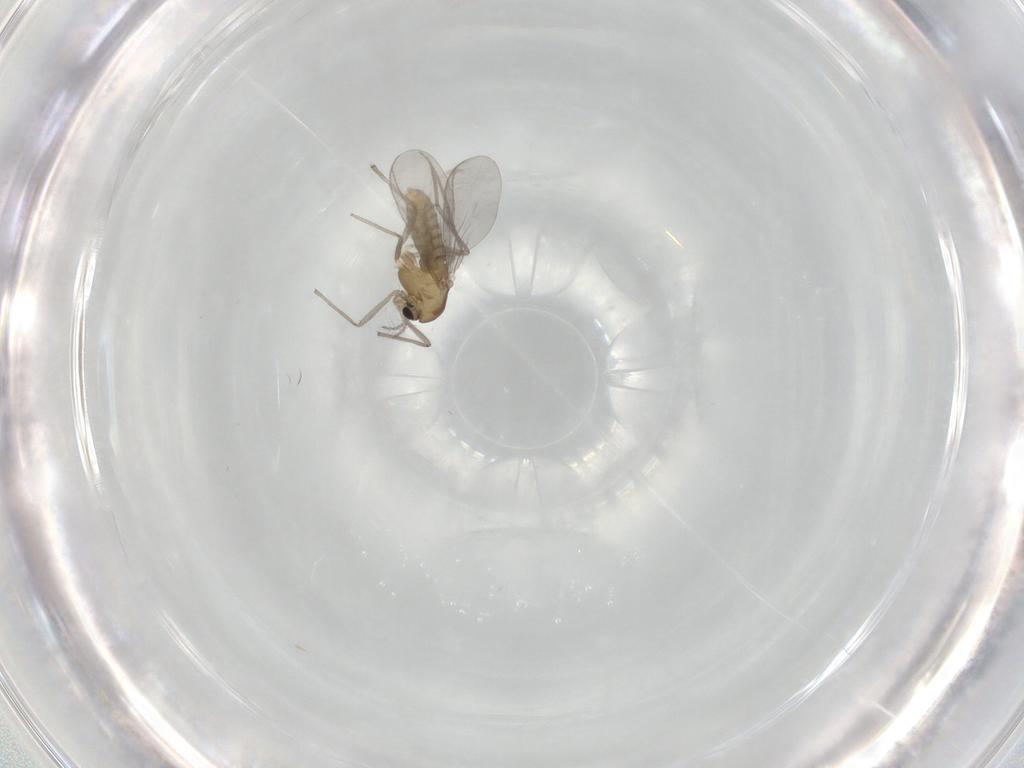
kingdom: Animalia
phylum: Arthropoda
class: Insecta
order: Diptera
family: Chironomidae
